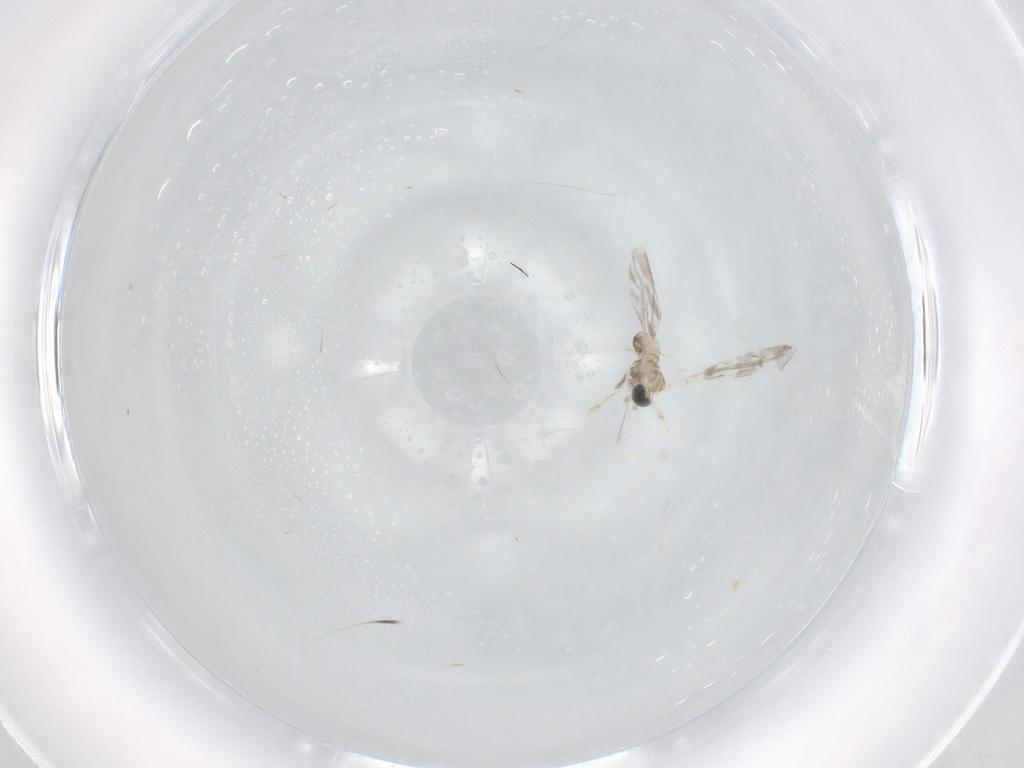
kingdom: Animalia
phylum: Arthropoda
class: Insecta
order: Diptera
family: Cecidomyiidae
